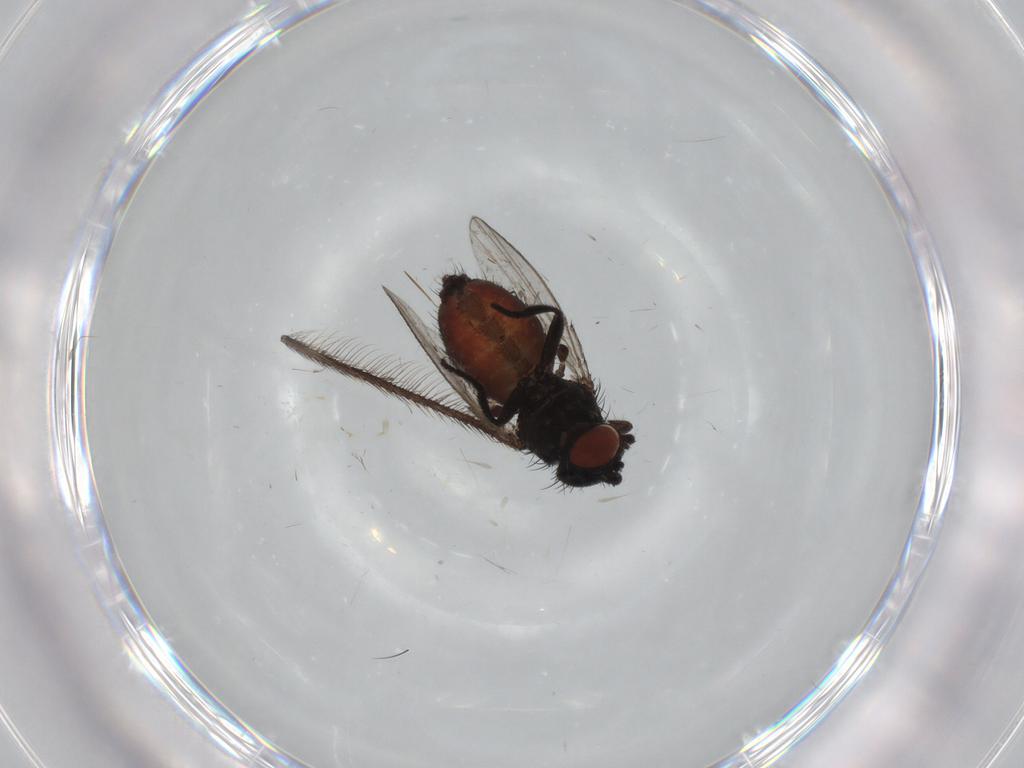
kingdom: Animalia
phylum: Arthropoda
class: Insecta
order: Diptera
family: Milichiidae
